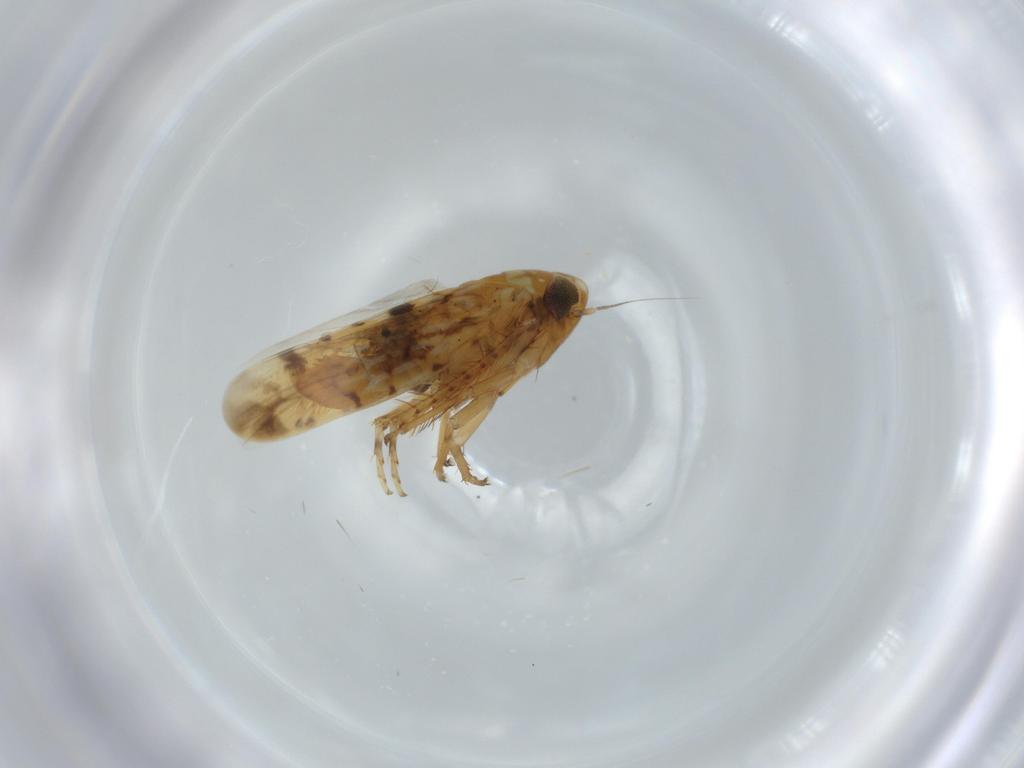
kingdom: Animalia
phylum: Arthropoda
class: Insecta
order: Hemiptera
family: Cicadellidae
